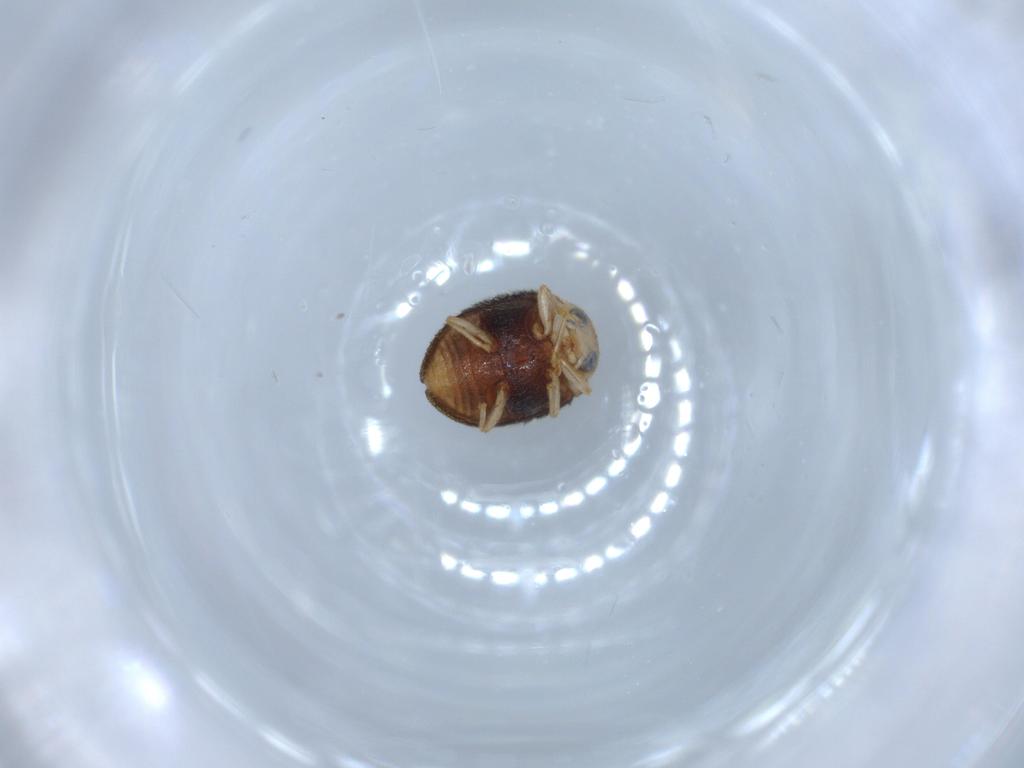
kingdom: Animalia
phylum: Arthropoda
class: Insecta
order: Coleoptera
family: Coccinellidae
